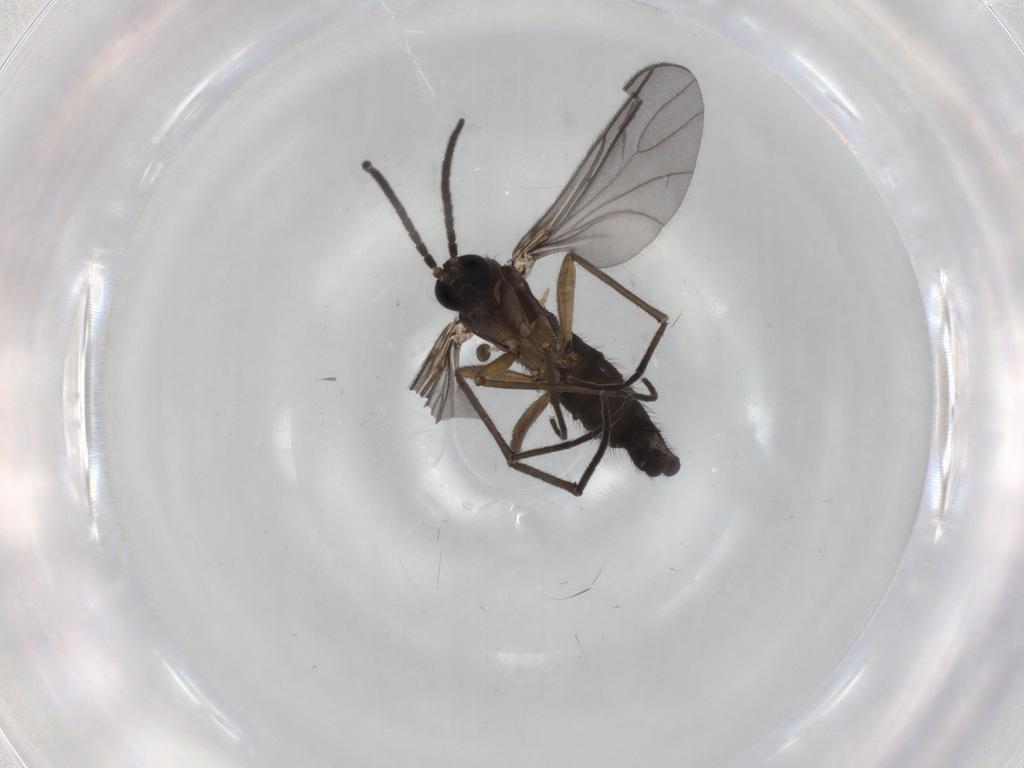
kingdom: Animalia
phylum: Arthropoda
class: Insecta
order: Diptera
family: Sciaridae
